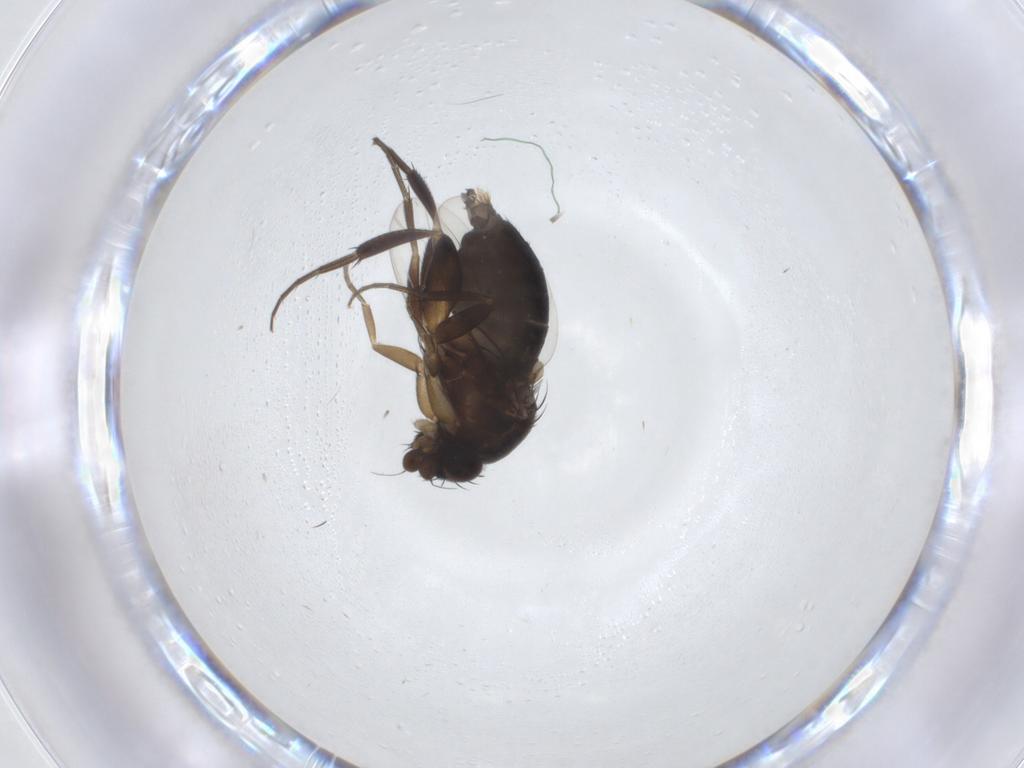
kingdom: Animalia
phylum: Arthropoda
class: Insecta
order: Diptera
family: Phoridae
